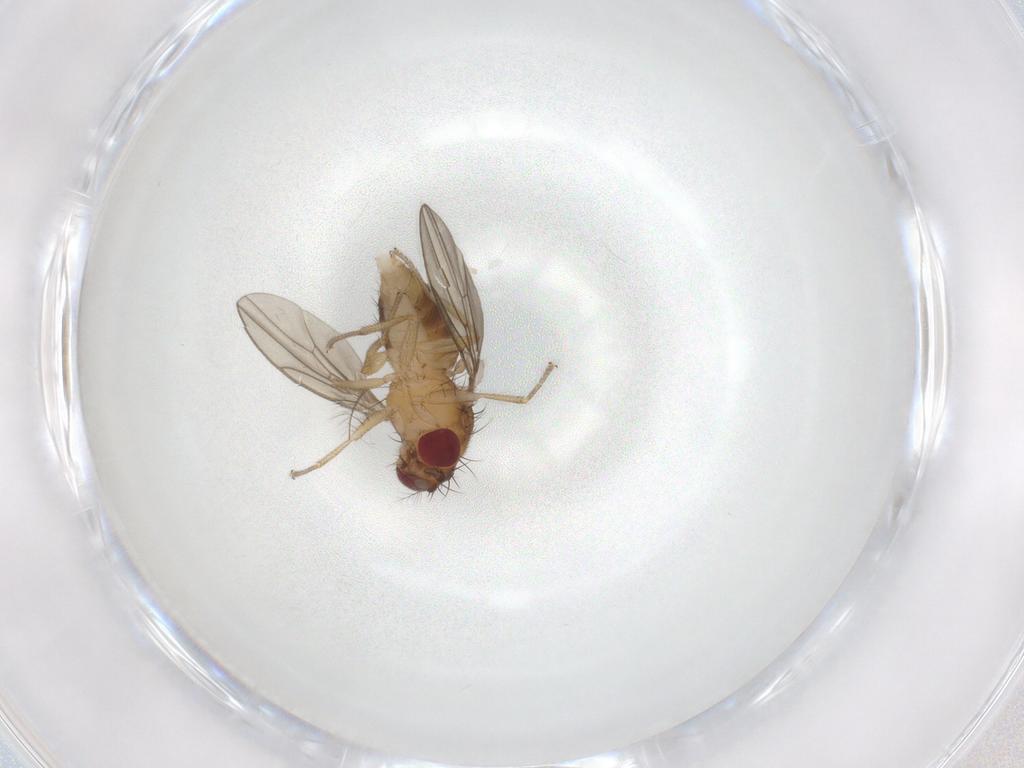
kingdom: Animalia
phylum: Arthropoda
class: Insecta
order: Diptera
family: Drosophilidae
